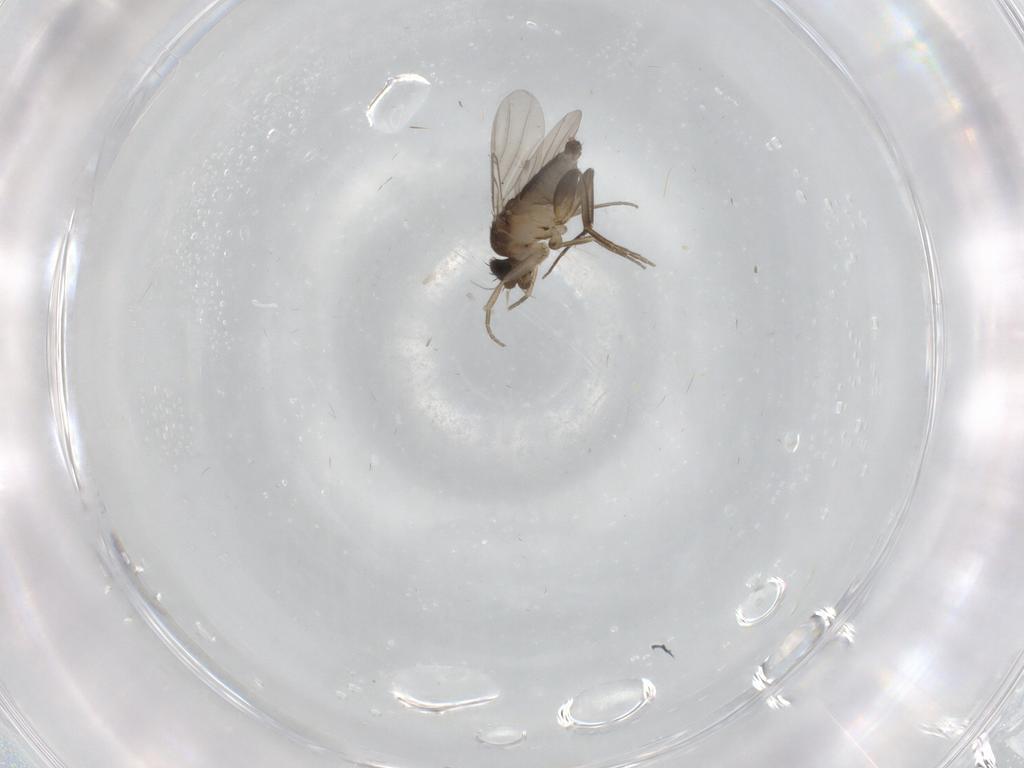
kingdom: Animalia
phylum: Arthropoda
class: Insecta
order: Diptera
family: Phoridae
